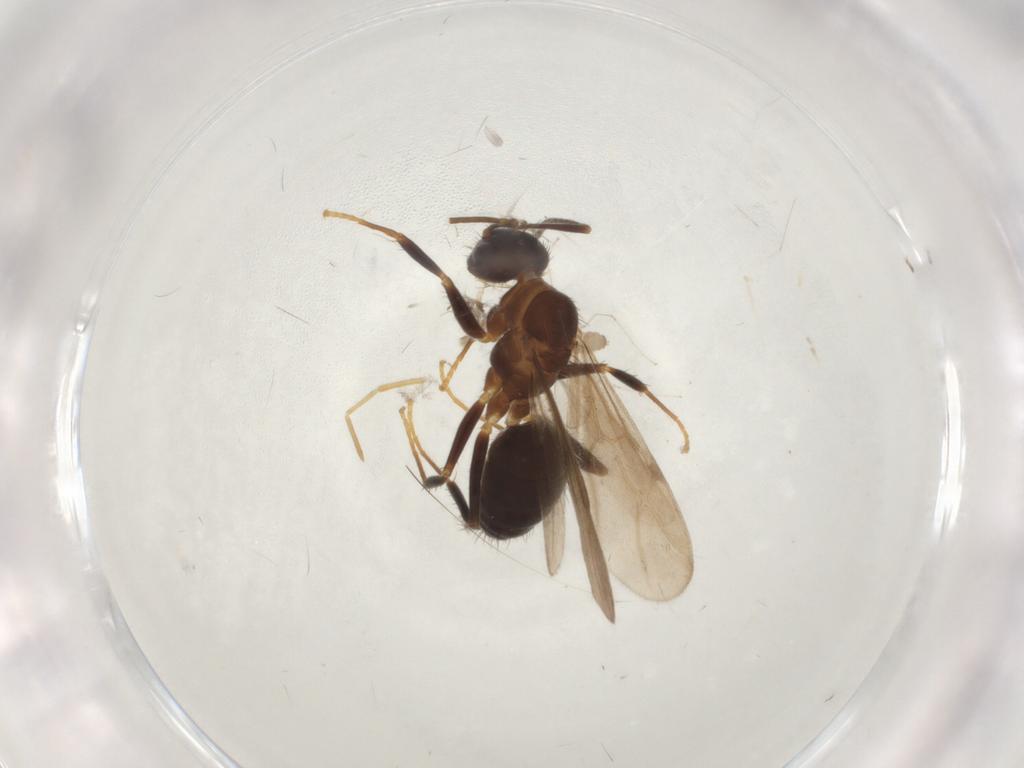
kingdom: Animalia
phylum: Arthropoda
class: Insecta
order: Hymenoptera
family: Formicidae
